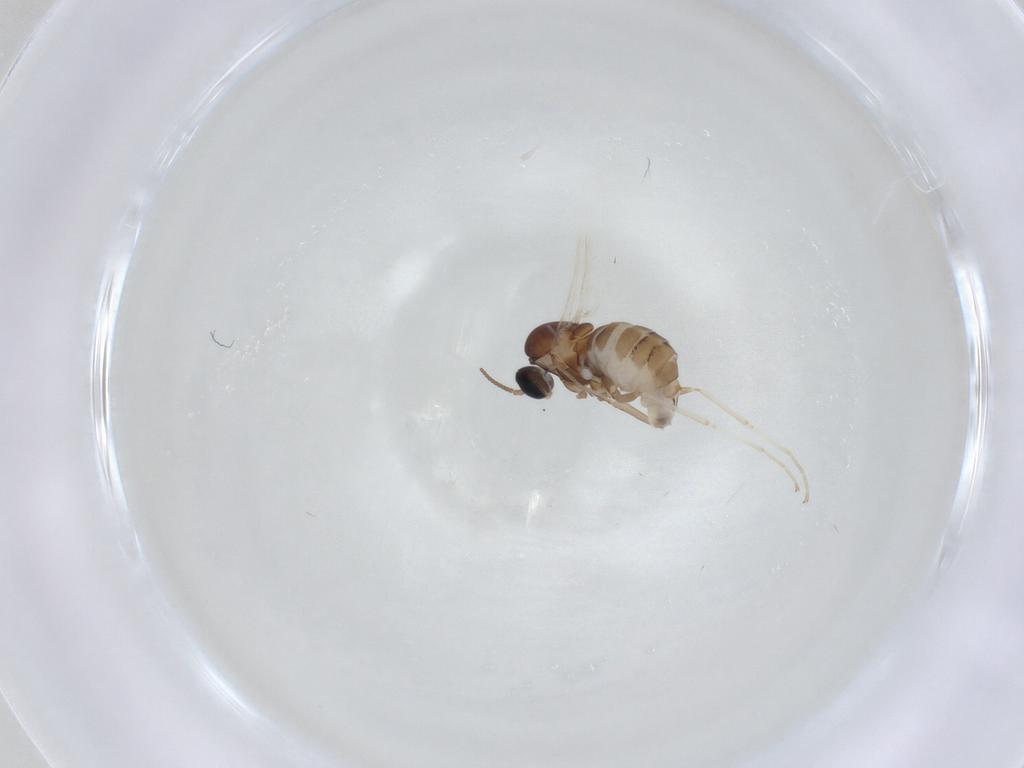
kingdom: Animalia
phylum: Arthropoda
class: Insecta
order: Diptera
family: Cecidomyiidae
